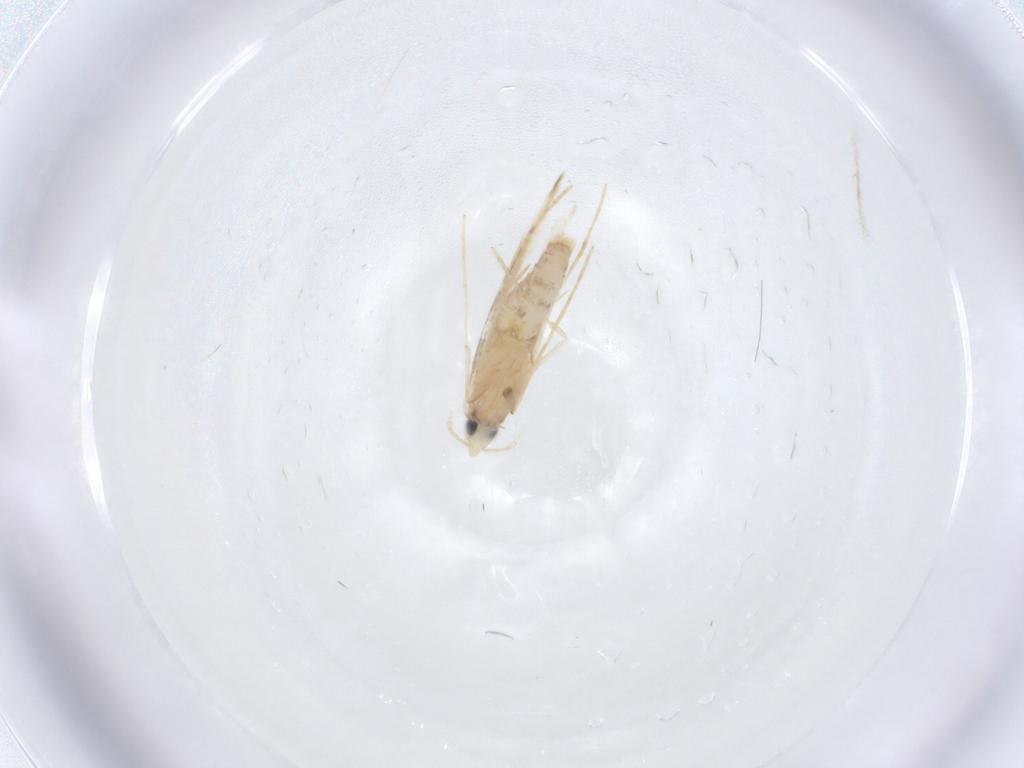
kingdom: Animalia
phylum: Arthropoda
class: Insecta
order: Lepidoptera
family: Tineidae
